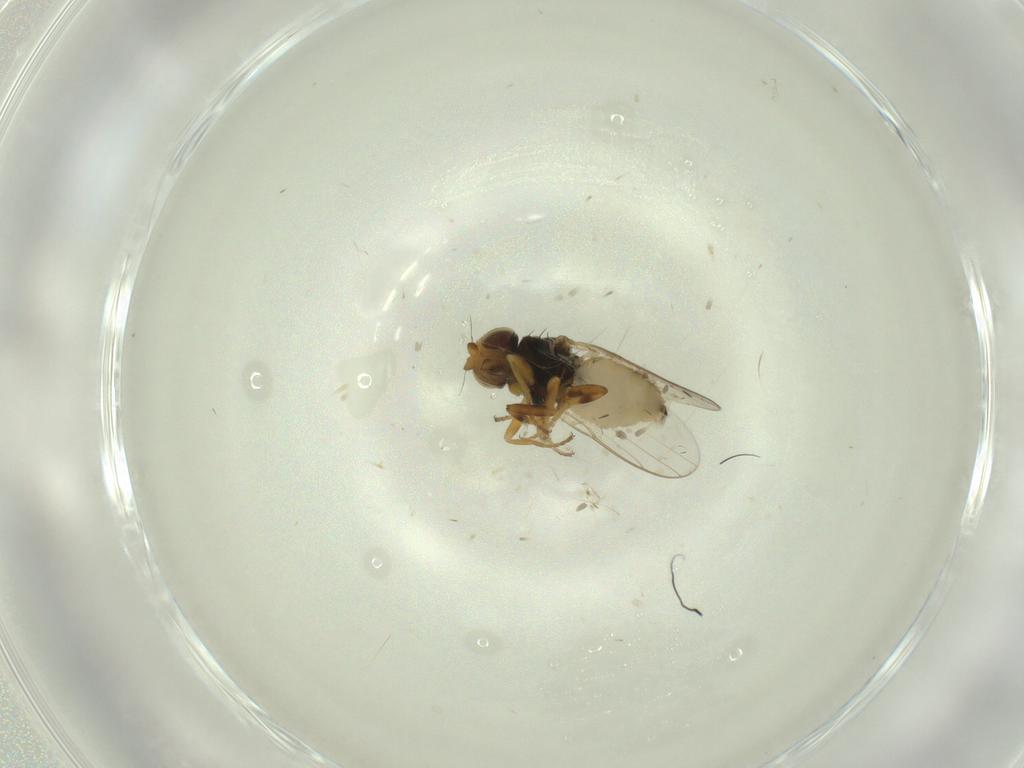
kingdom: Animalia
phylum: Arthropoda
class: Insecta
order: Diptera
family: Chloropidae
